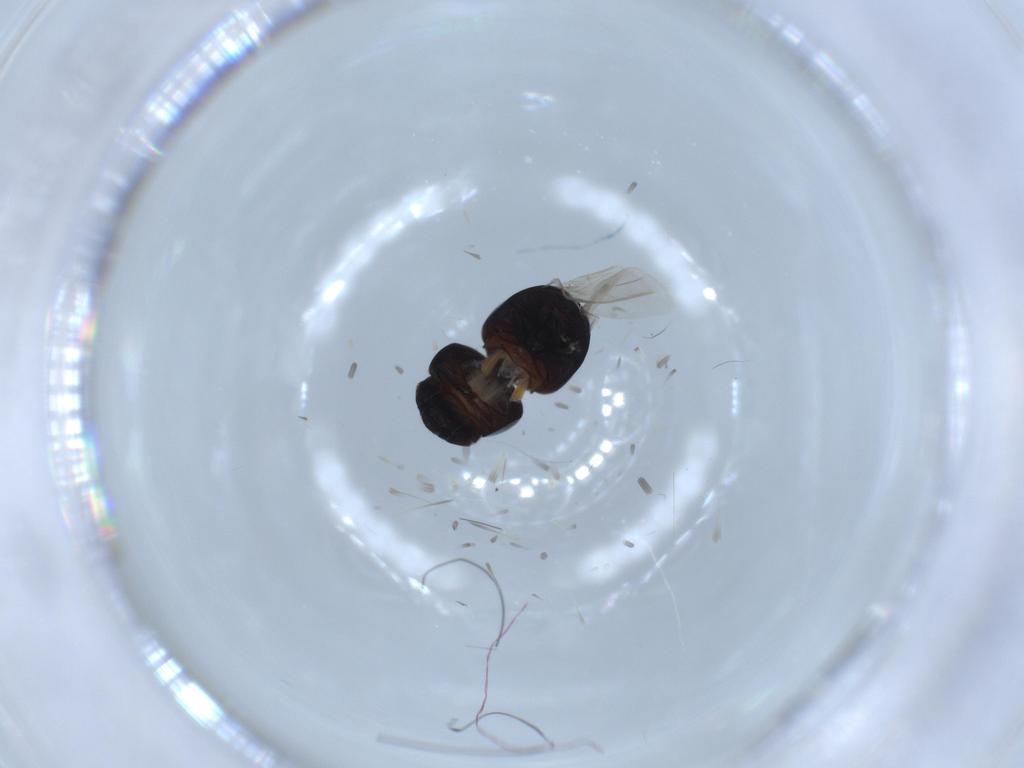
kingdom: Animalia
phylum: Arthropoda
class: Insecta
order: Coleoptera
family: Cybocephalidae
